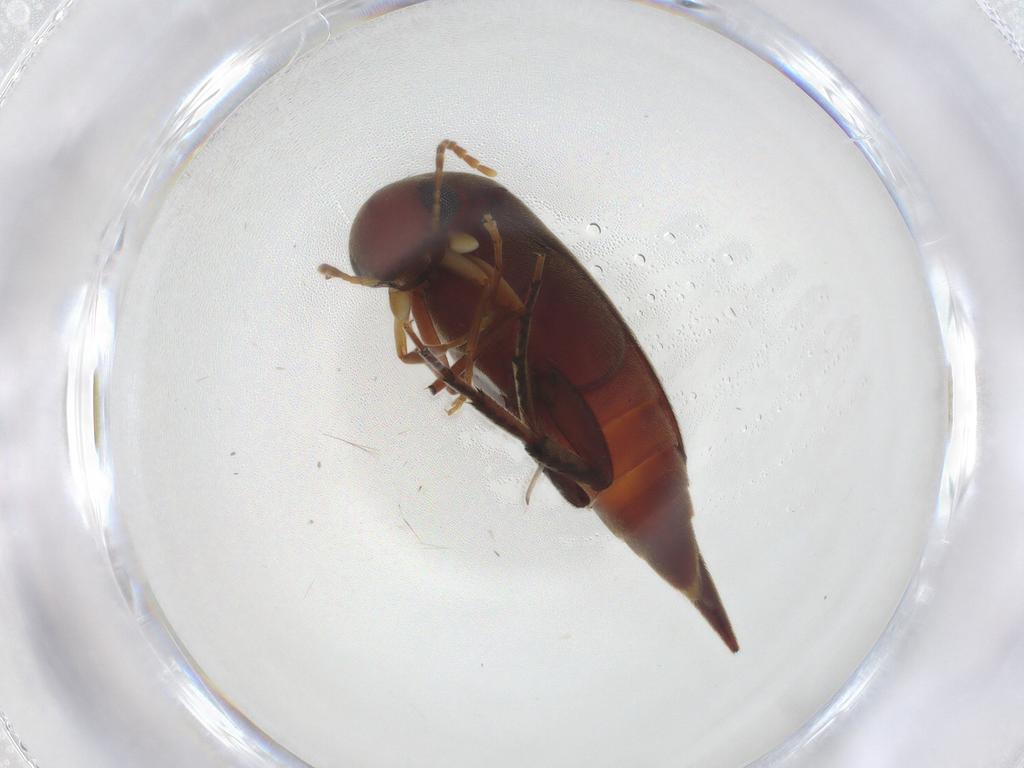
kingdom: Animalia
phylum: Arthropoda
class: Insecta
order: Coleoptera
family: Mordellidae
